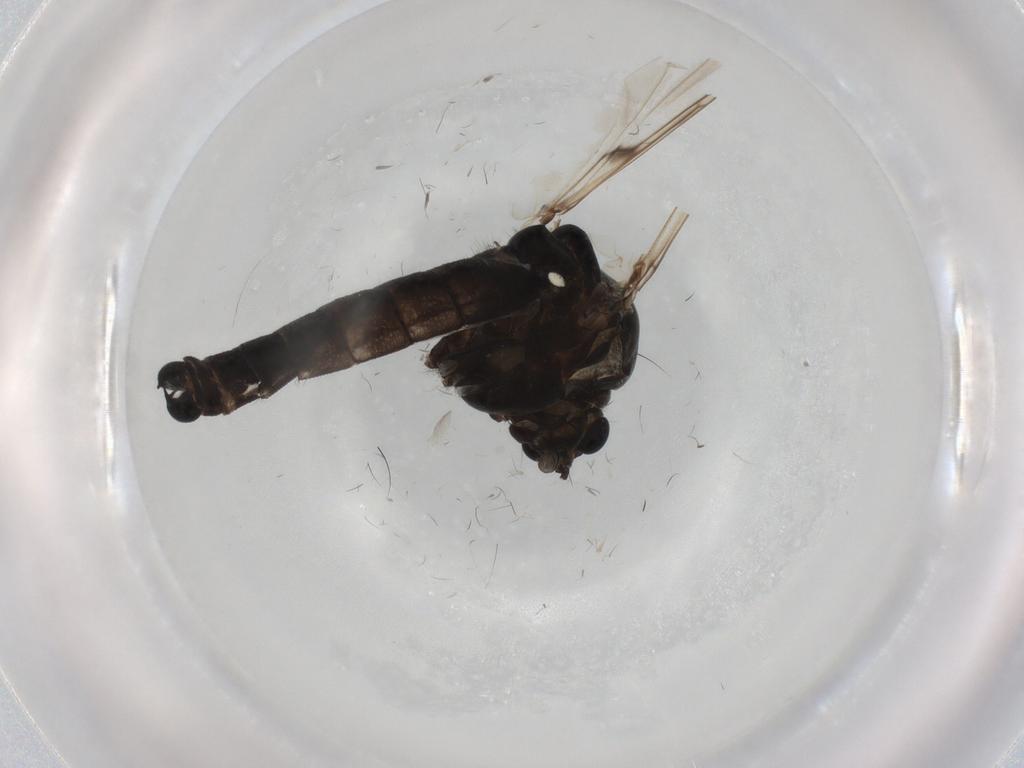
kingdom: Animalia
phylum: Arthropoda
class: Insecta
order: Diptera
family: Chironomidae
